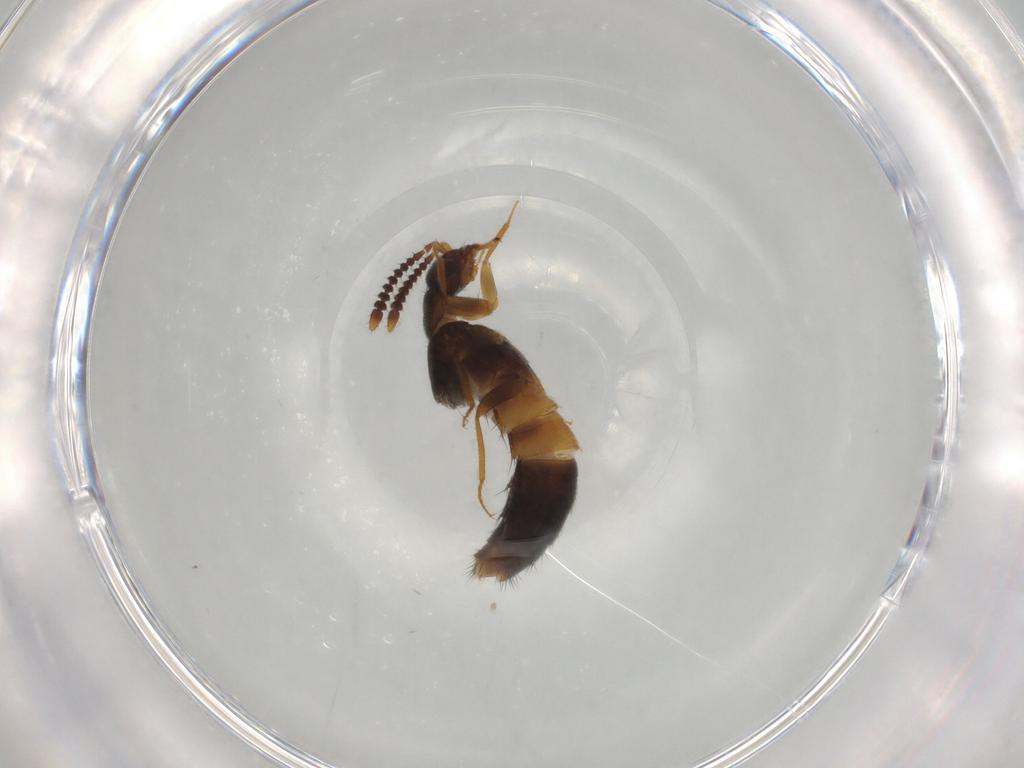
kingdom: Animalia
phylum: Arthropoda
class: Insecta
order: Coleoptera
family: Staphylinidae
